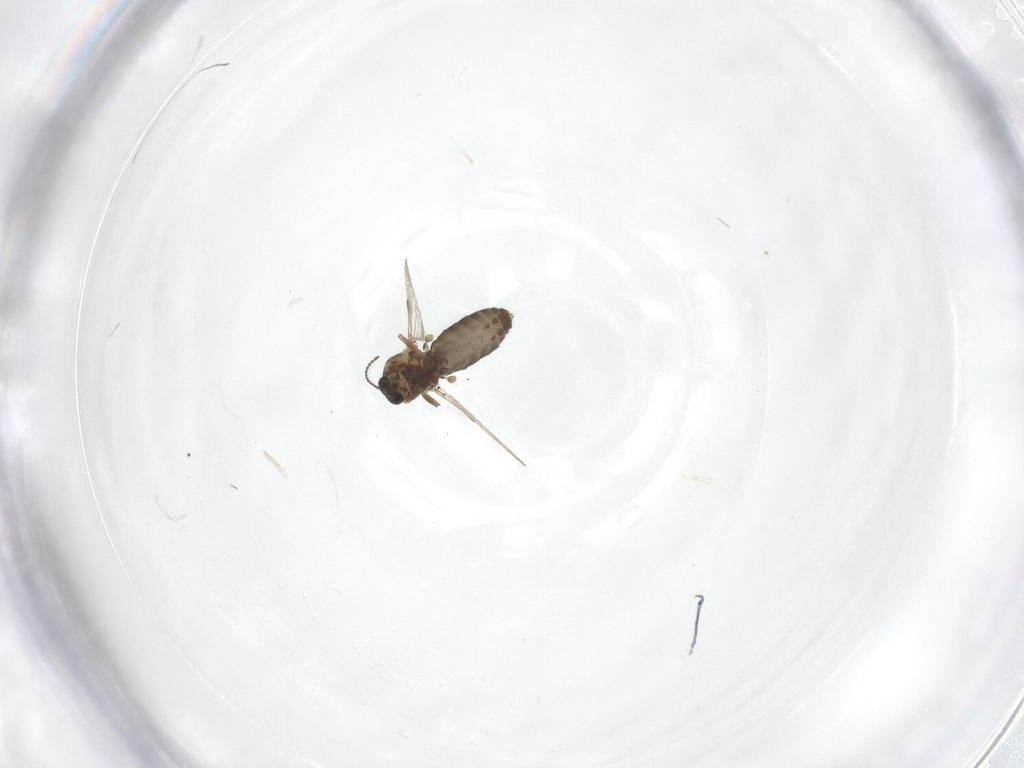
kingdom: Animalia
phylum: Arthropoda
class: Insecta
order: Diptera
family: Ceratopogonidae
